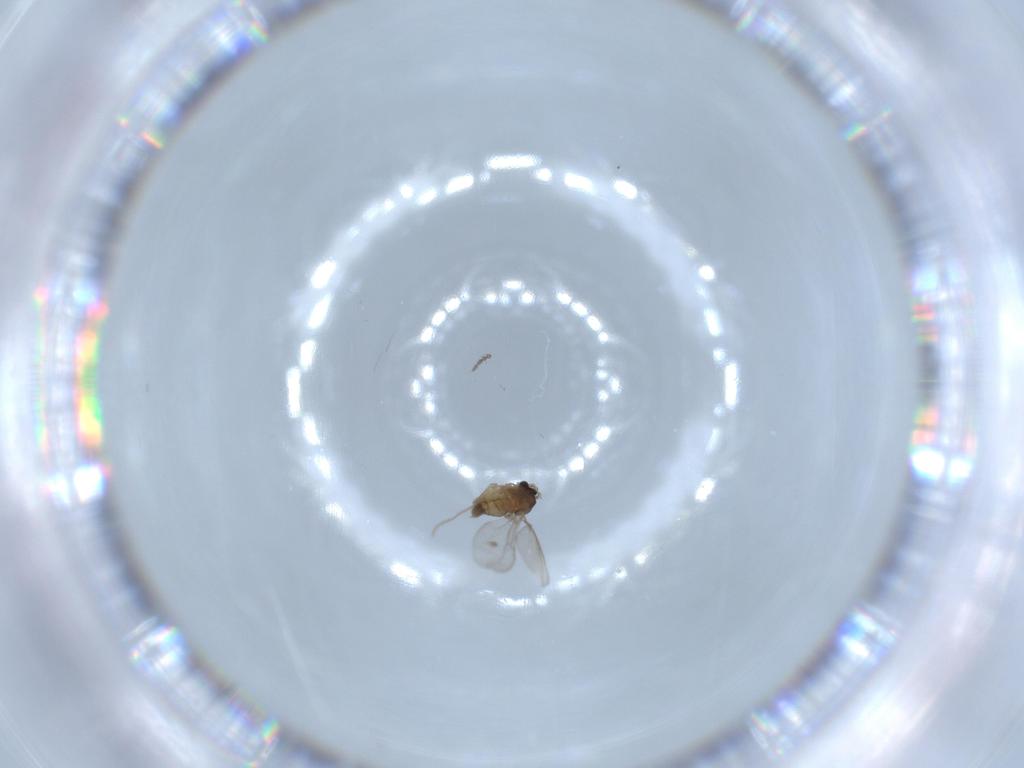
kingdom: Animalia
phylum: Arthropoda
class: Insecta
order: Diptera
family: Cecidomyiidae
